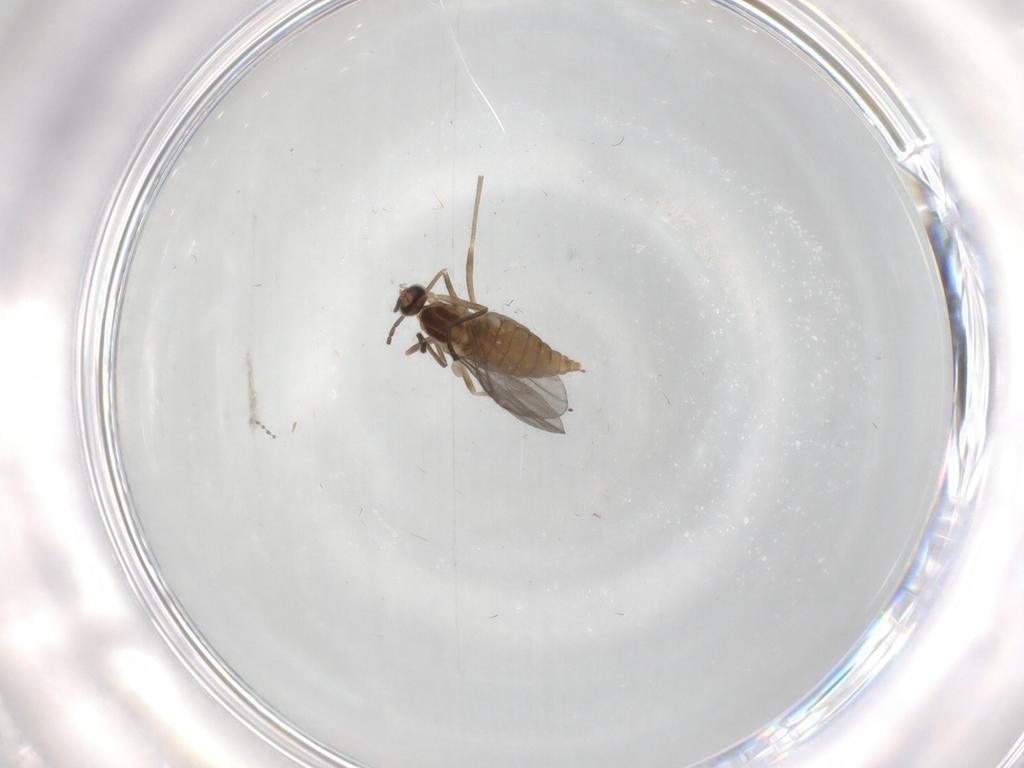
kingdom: Animalia
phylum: Arthropoda
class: Insecta
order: Diptera
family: Cecidomyiidae
